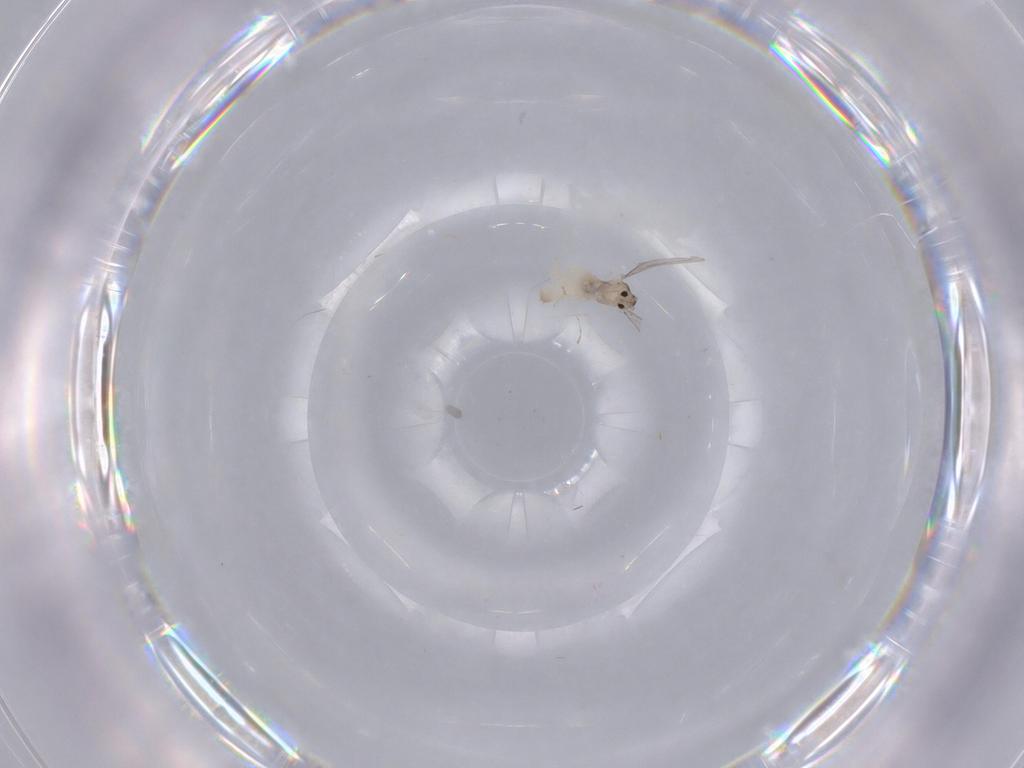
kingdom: Animalia
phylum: Arthropoda
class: Insecta
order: Diptera
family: Cecidomyiidae
